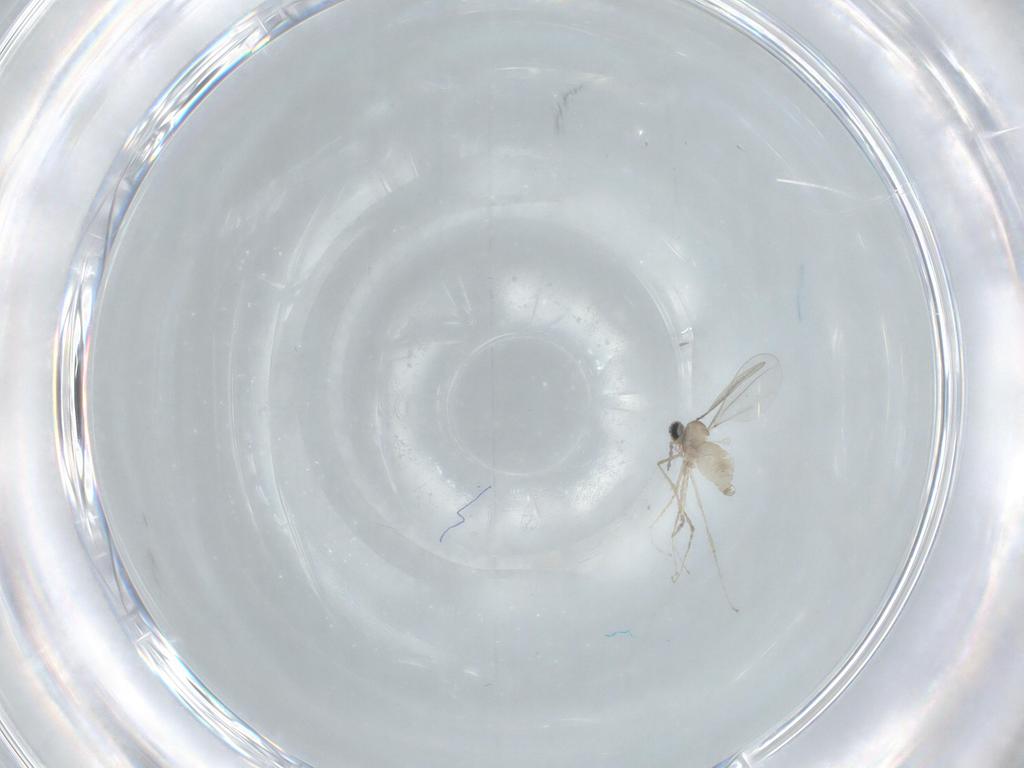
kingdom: Animalia
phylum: Arthropoda
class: Insecta
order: Diptera
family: Cecidomyiidae
